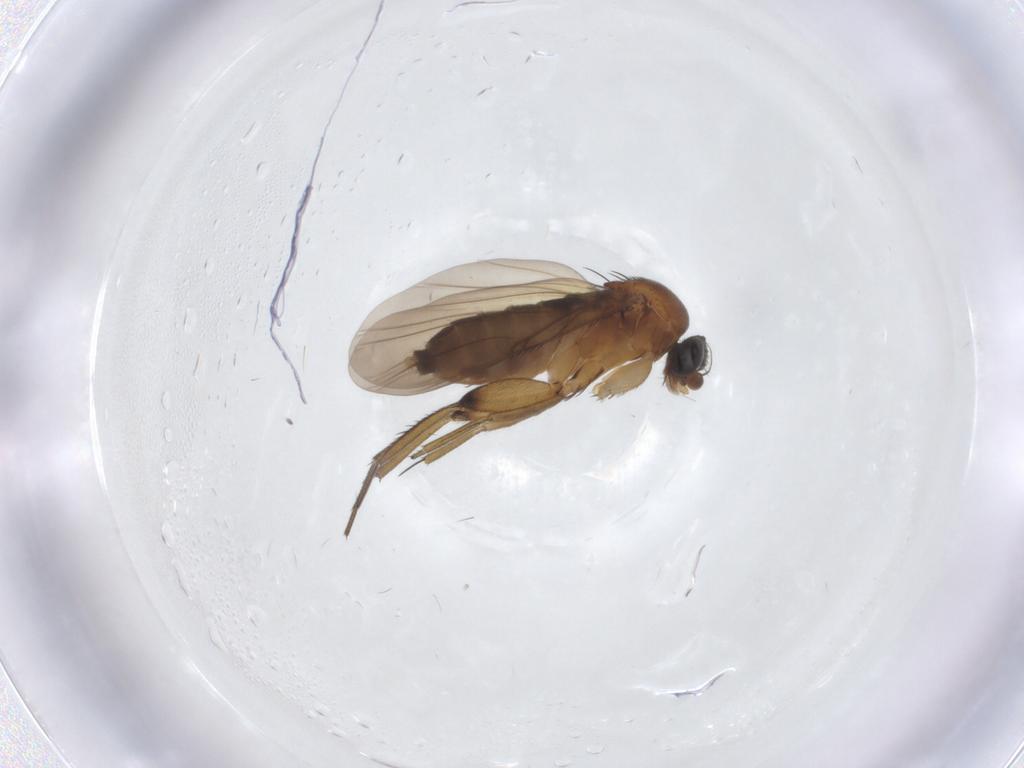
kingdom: Animalia
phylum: Arthropoda
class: Insecta
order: Diptera
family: Phoridae
